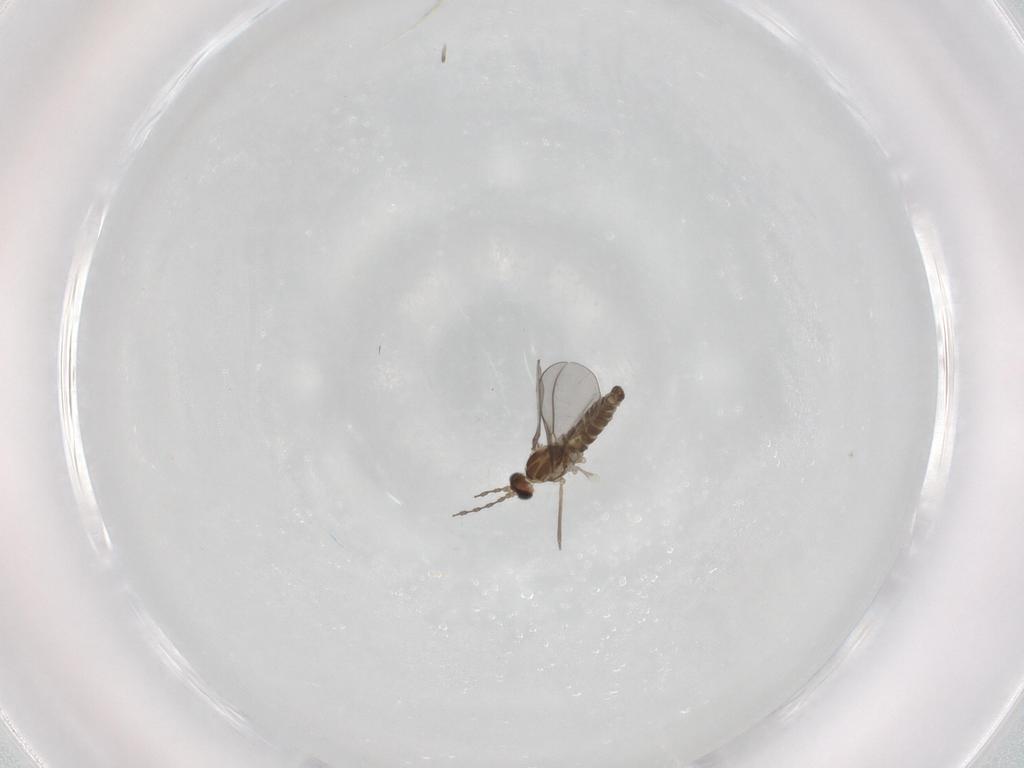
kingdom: Animalia
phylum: Arthropoda
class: Insecta
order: Diptera
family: Cecidomyiidae
